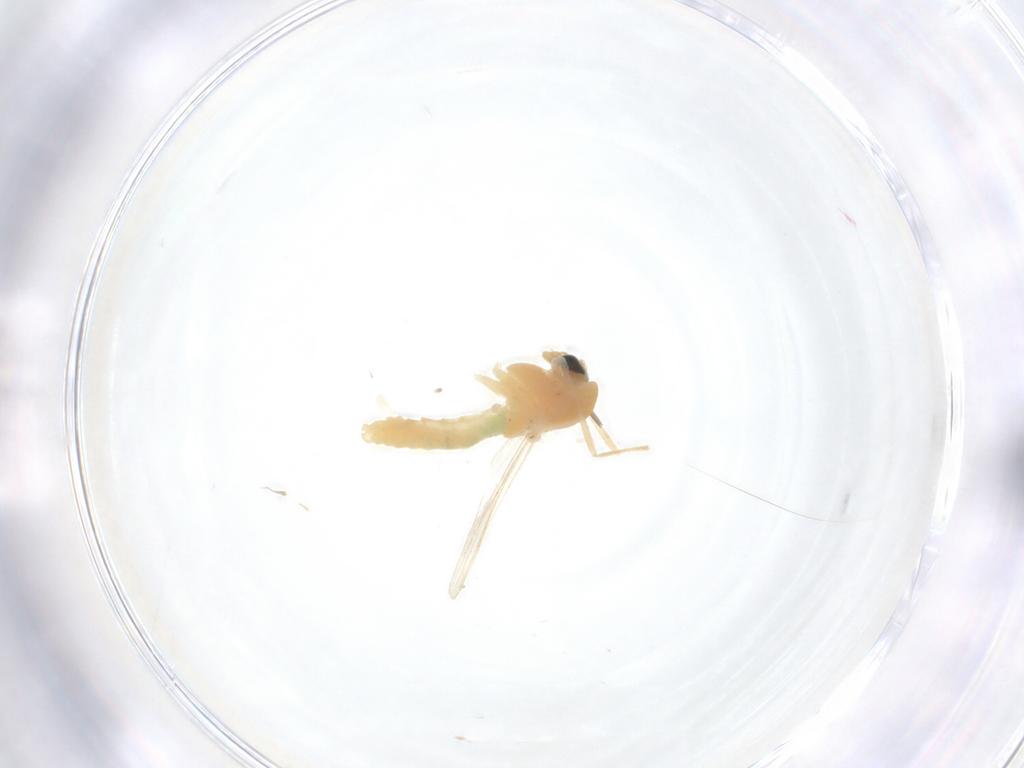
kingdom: Animalia
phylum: Arthropoda
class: Insecta
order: Diptera
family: Chironomidae
